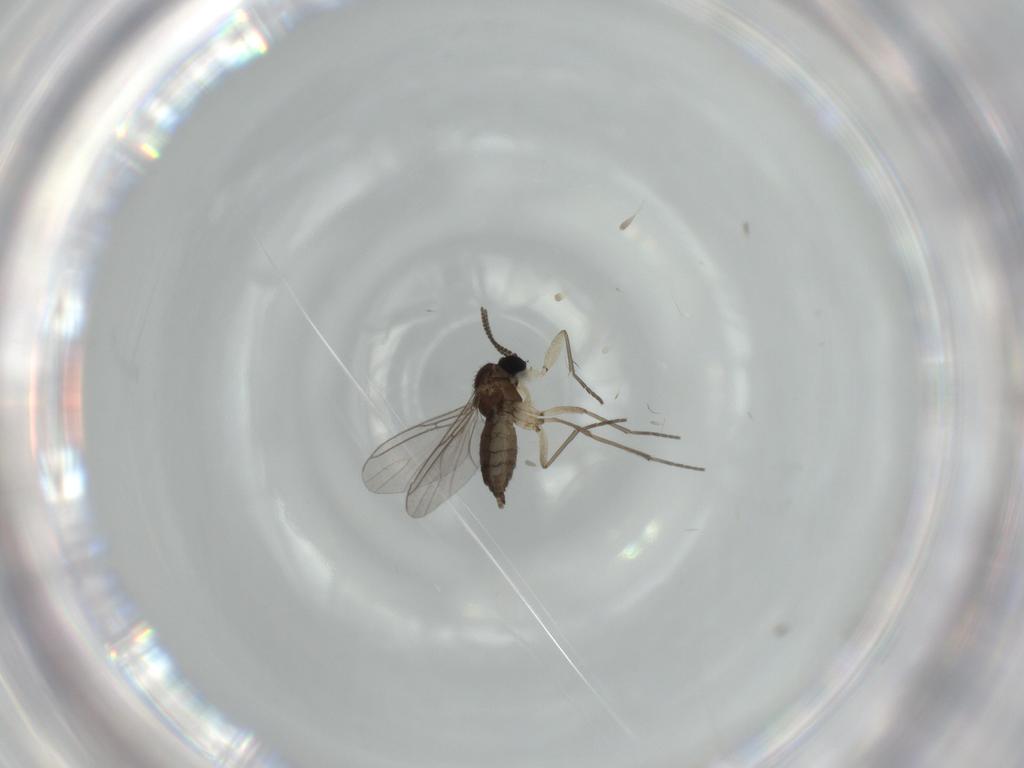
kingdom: Animalia
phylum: Arthropoda
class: Insecta
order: Diptera
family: Sciaridae
